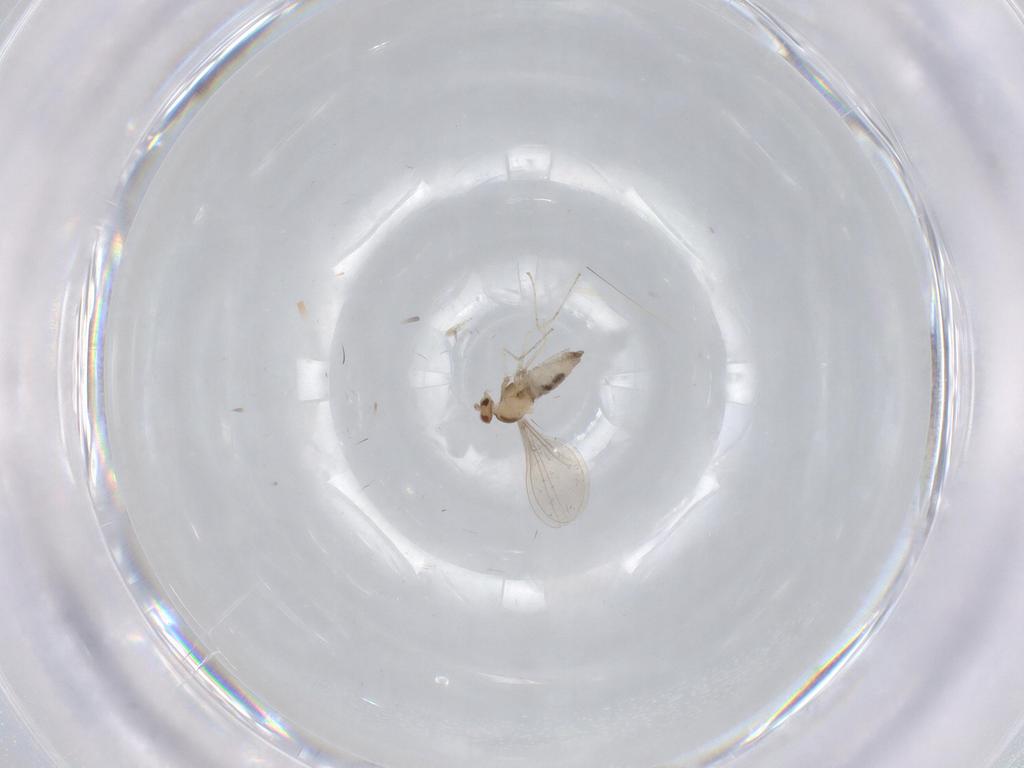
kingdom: Animalia
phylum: Arthropoda
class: Insecta
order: Diptera
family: Cecidomyiidae
